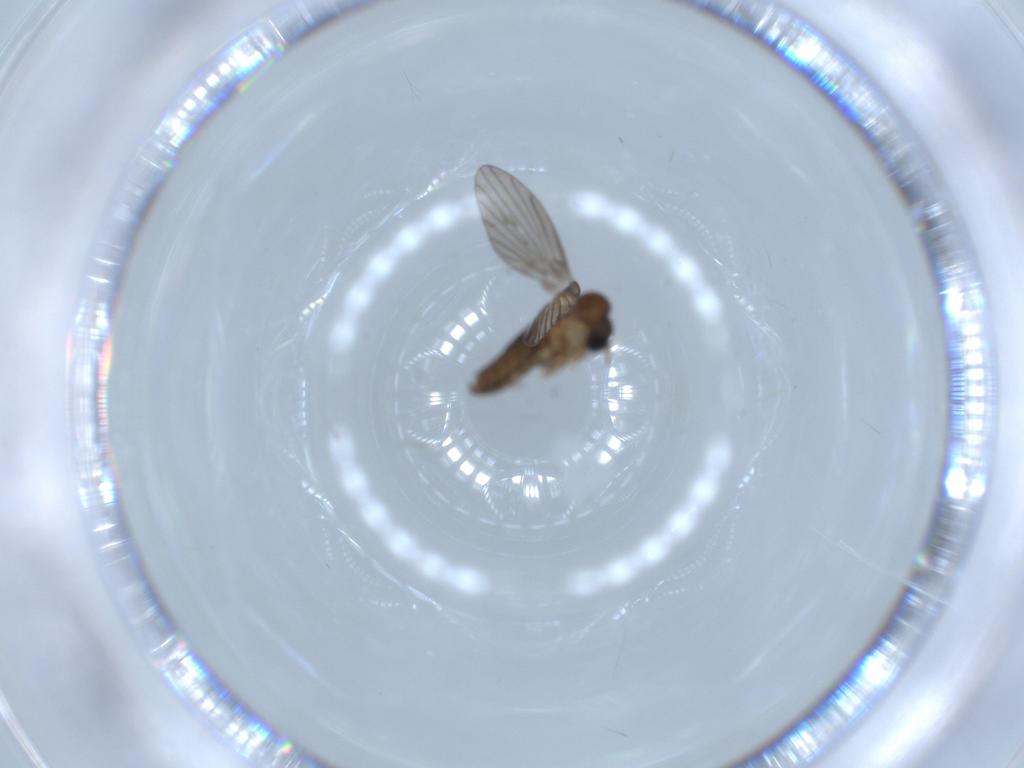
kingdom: Animalia
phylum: Arthropoda
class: Insecta
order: Diptera
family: Psychodidae
